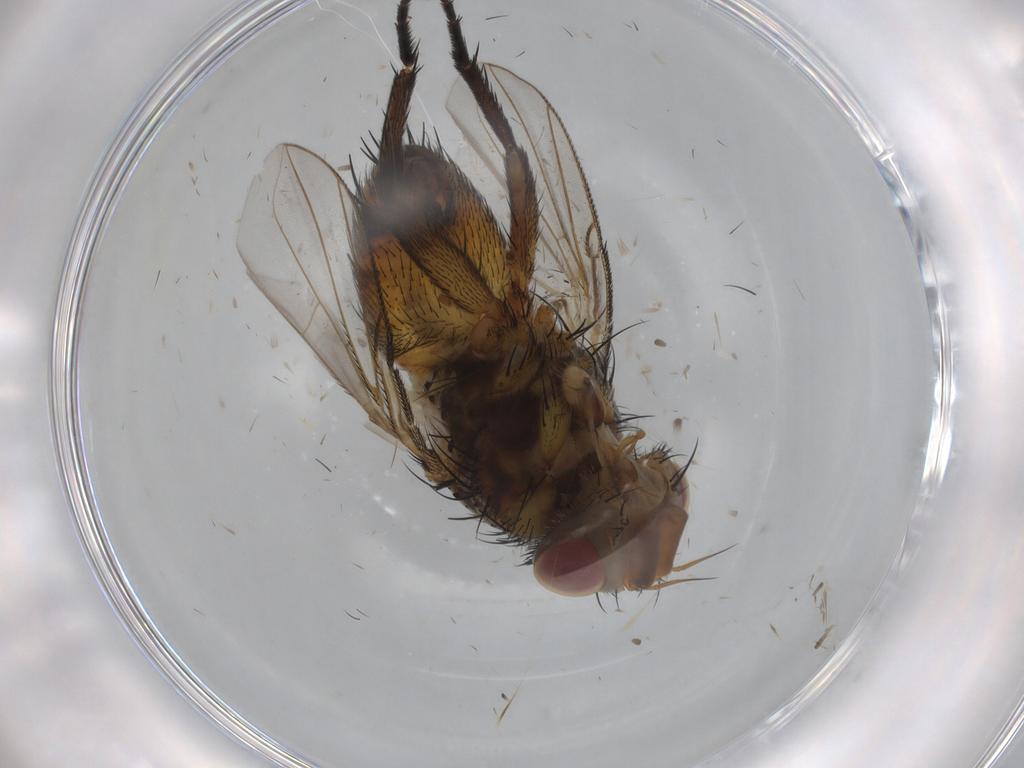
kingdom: Animalia
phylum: Arthropoda
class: Insecta
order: Diptera
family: Tachinidae
